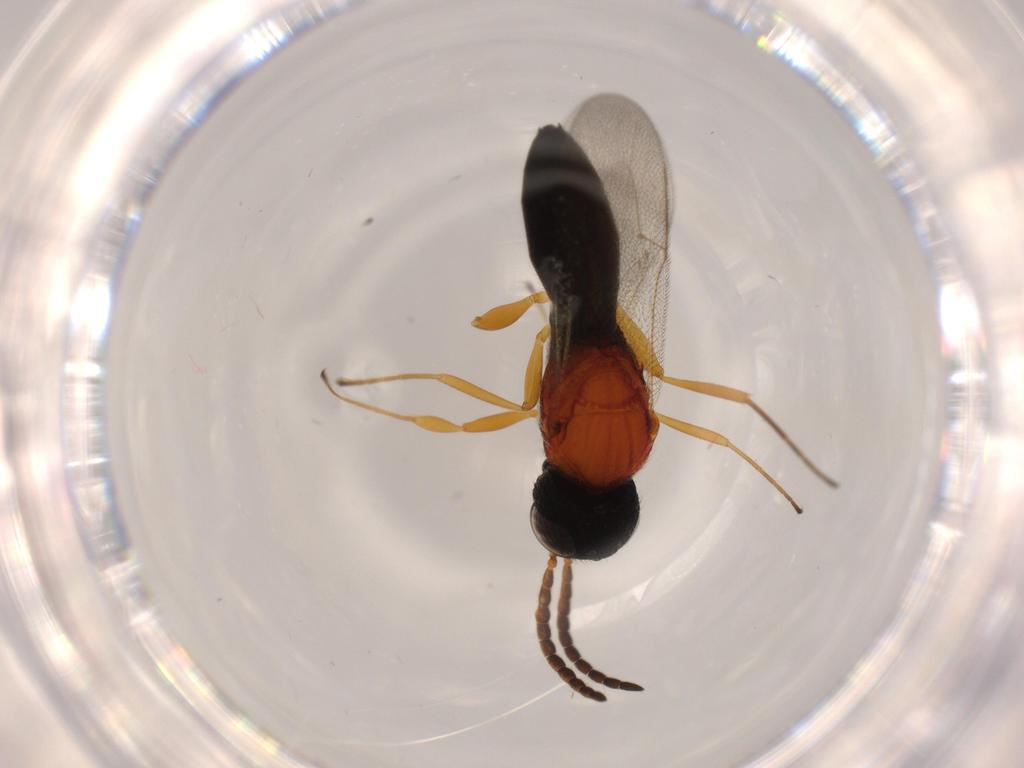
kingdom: Animalia
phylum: Arthropoda
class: Insecta
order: Hymenoptera
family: Scelionidae
